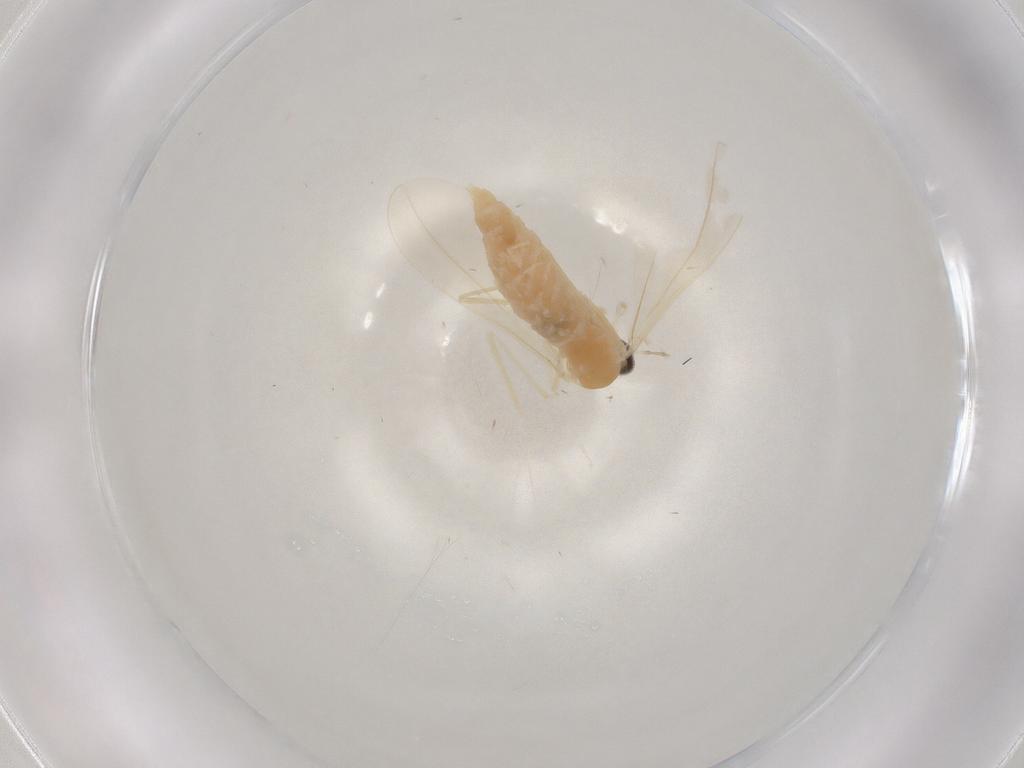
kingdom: Animalia
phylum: Arthropoda
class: Insecta
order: Diptera
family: Cecidomyiidae
